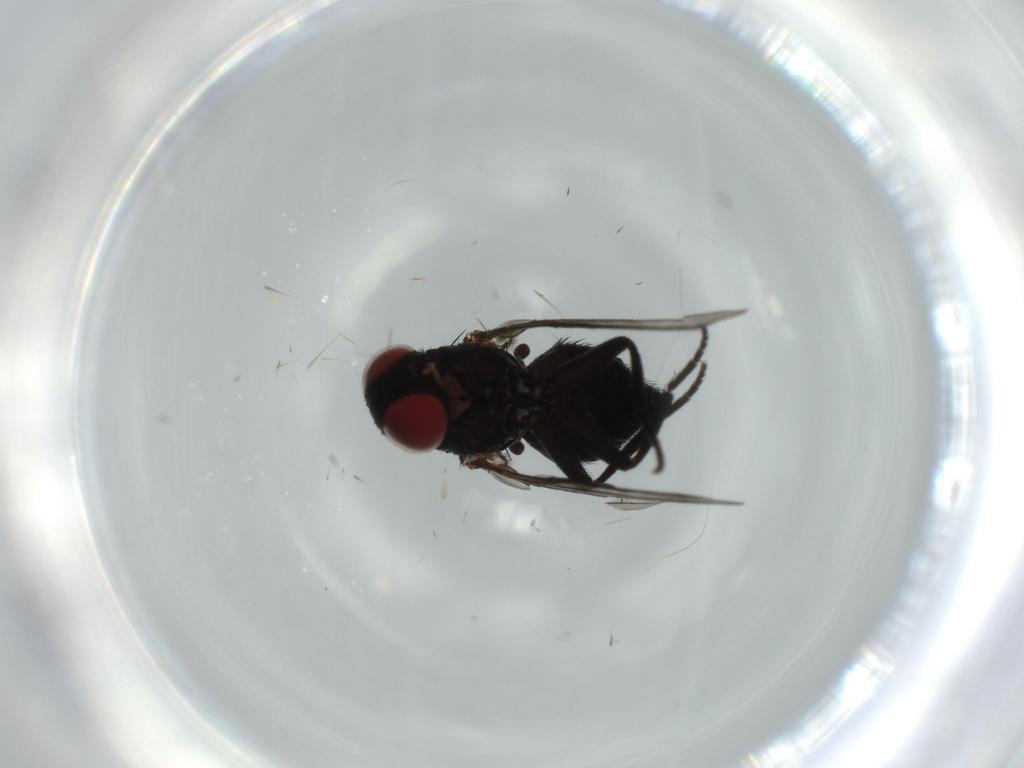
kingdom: Animalia
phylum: Arthropoda
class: Insecta
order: Diptera
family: Agromyzidae
